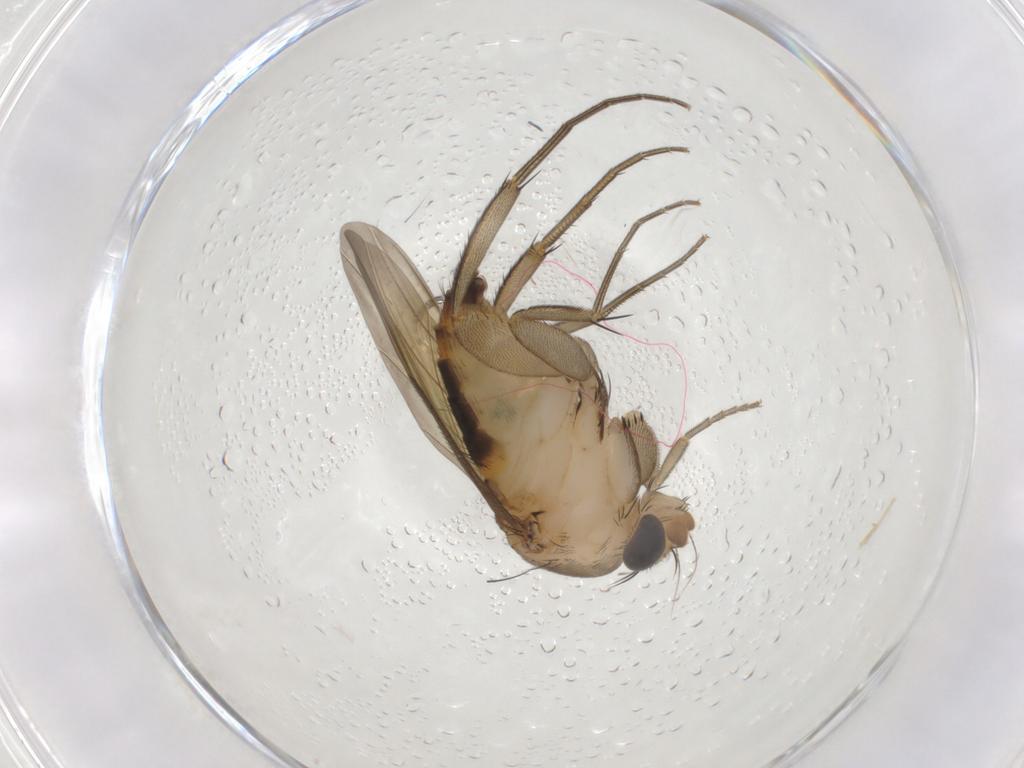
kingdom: Animalia
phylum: Arthropoda
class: Insecta
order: Diptera
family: Phoridae
